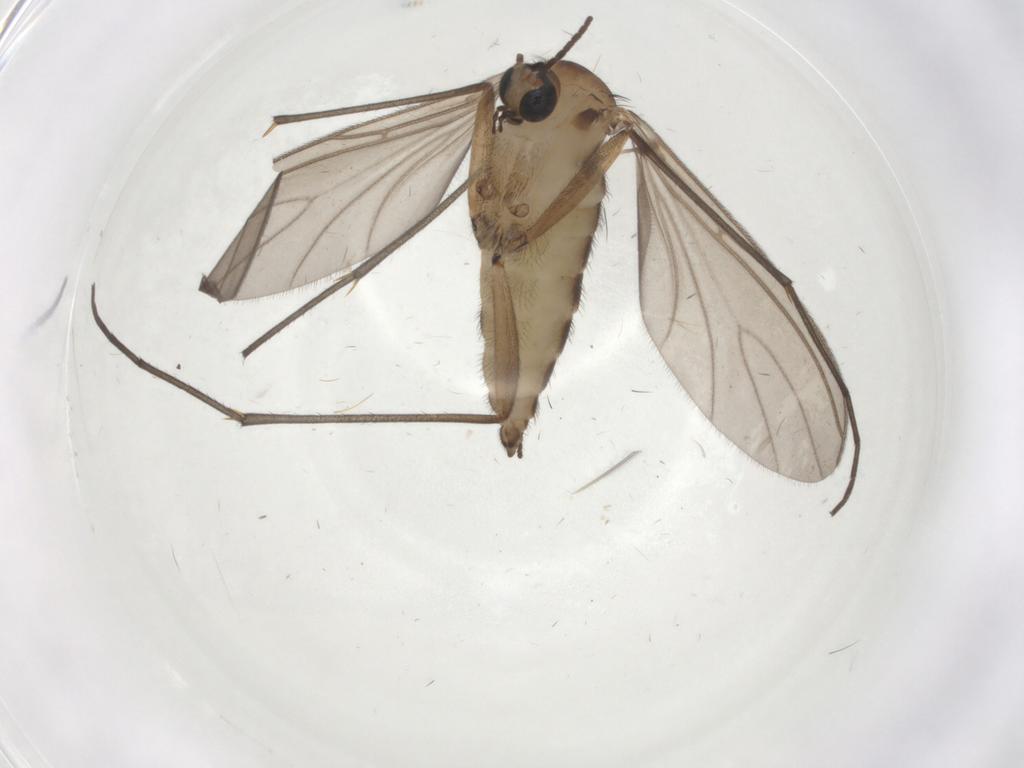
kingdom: Animalia
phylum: Arthropoda
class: Insecta
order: Diptera
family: Sciaridae
